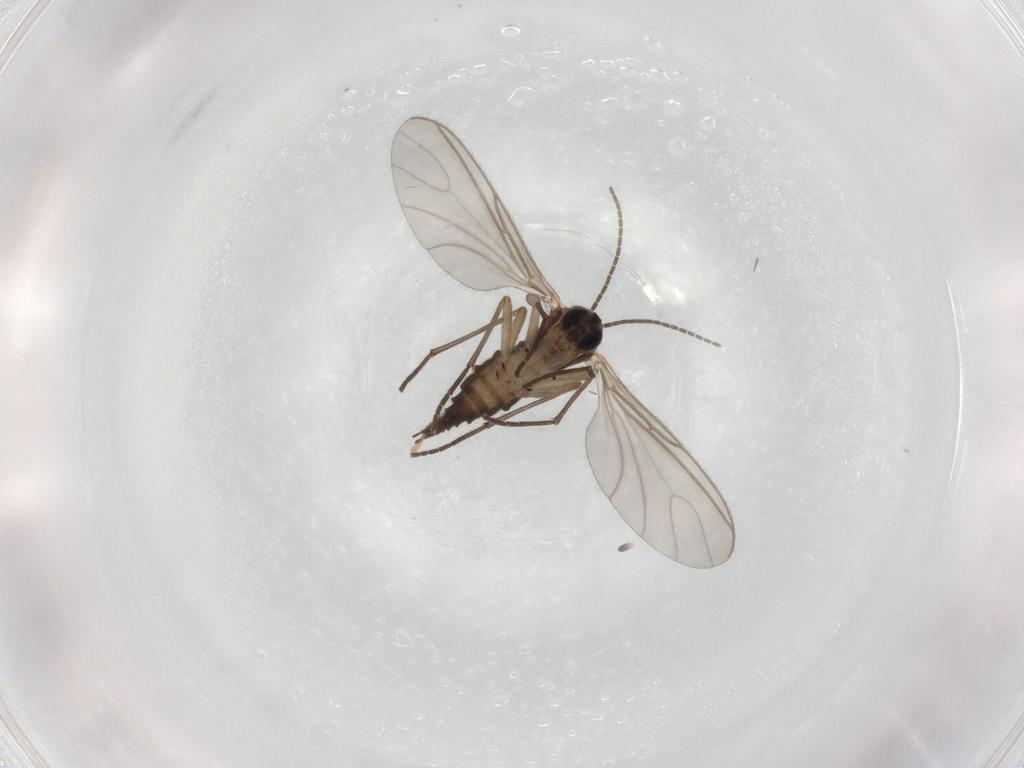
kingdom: Animalia
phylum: Arthropoda
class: Insecta
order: Diptera
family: Sciaridae
